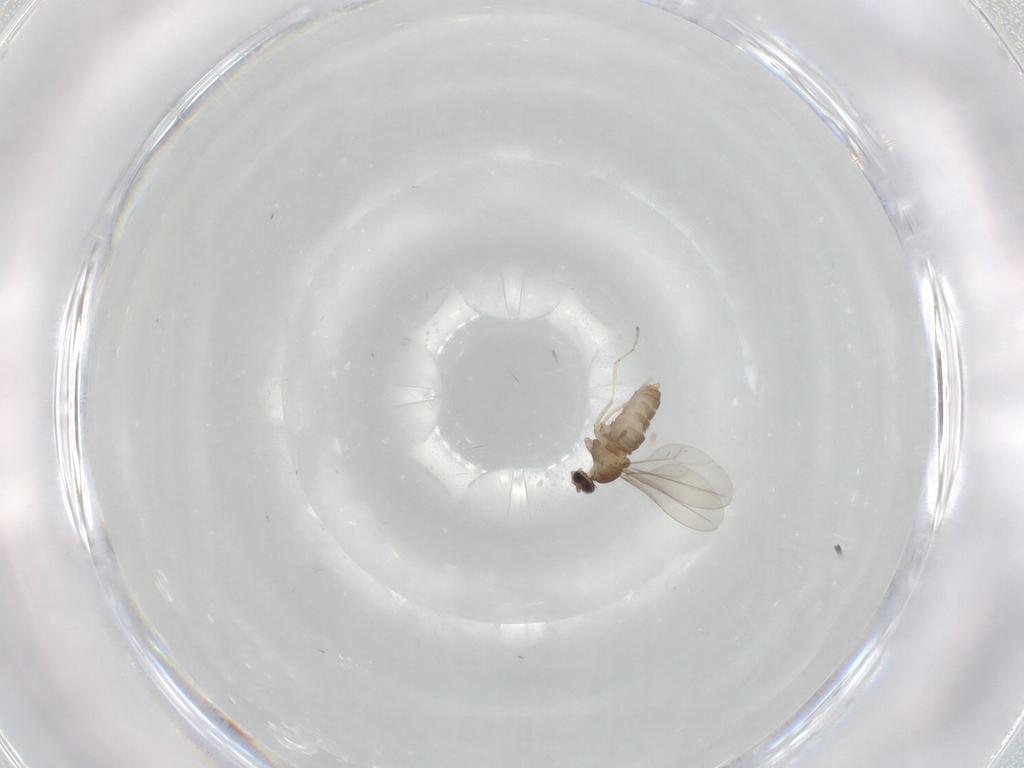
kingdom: Animalia
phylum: Arthropoda
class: Insecta
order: Diptera
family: Cecidomyiidae
